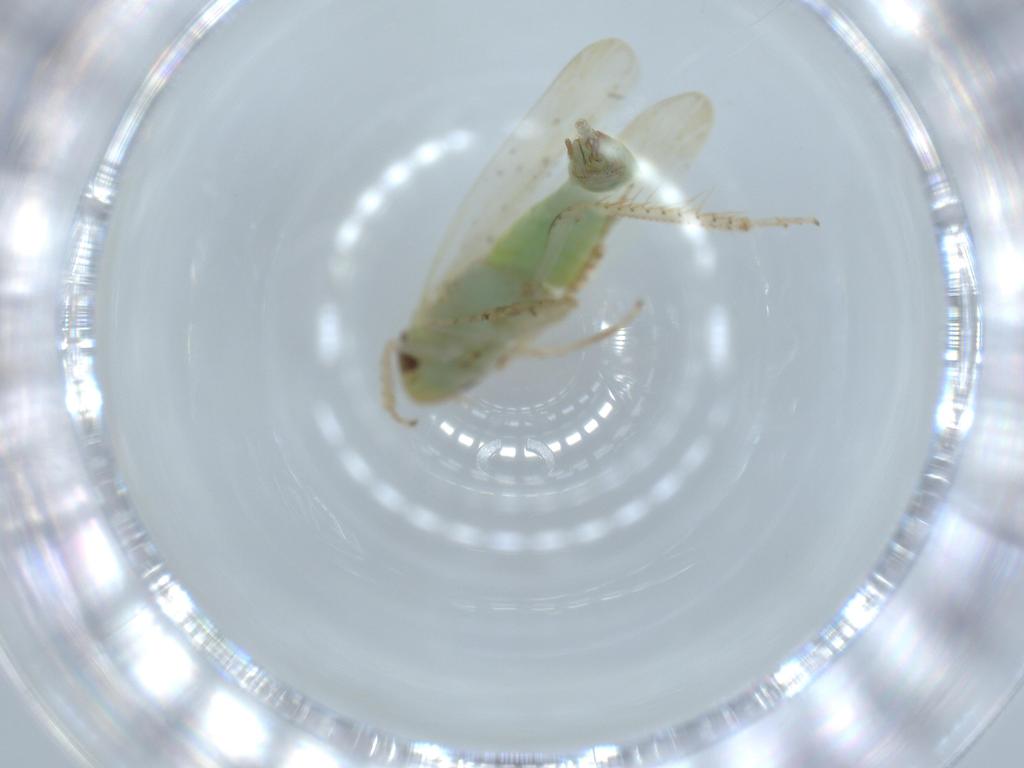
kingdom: Animalia
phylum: Arthropoda
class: Insecta
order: Hemiptera
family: Cicadellidae
